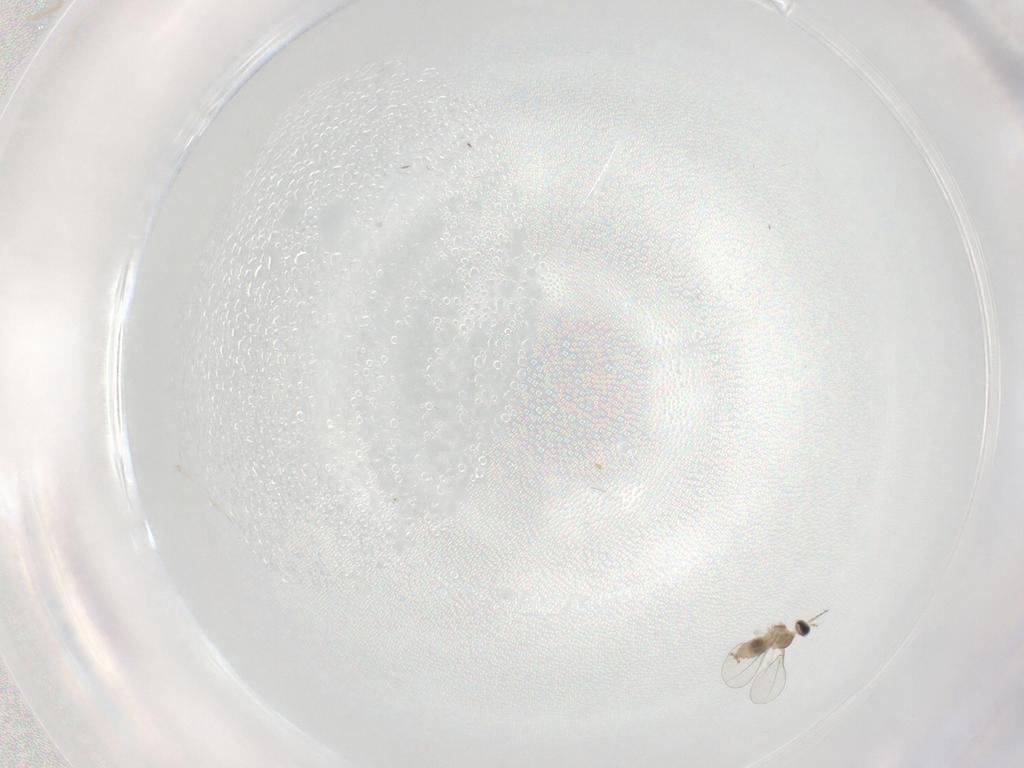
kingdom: Animalia
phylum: Arthropoda
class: Insecta
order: Diptera
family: Cecidomyiidae
